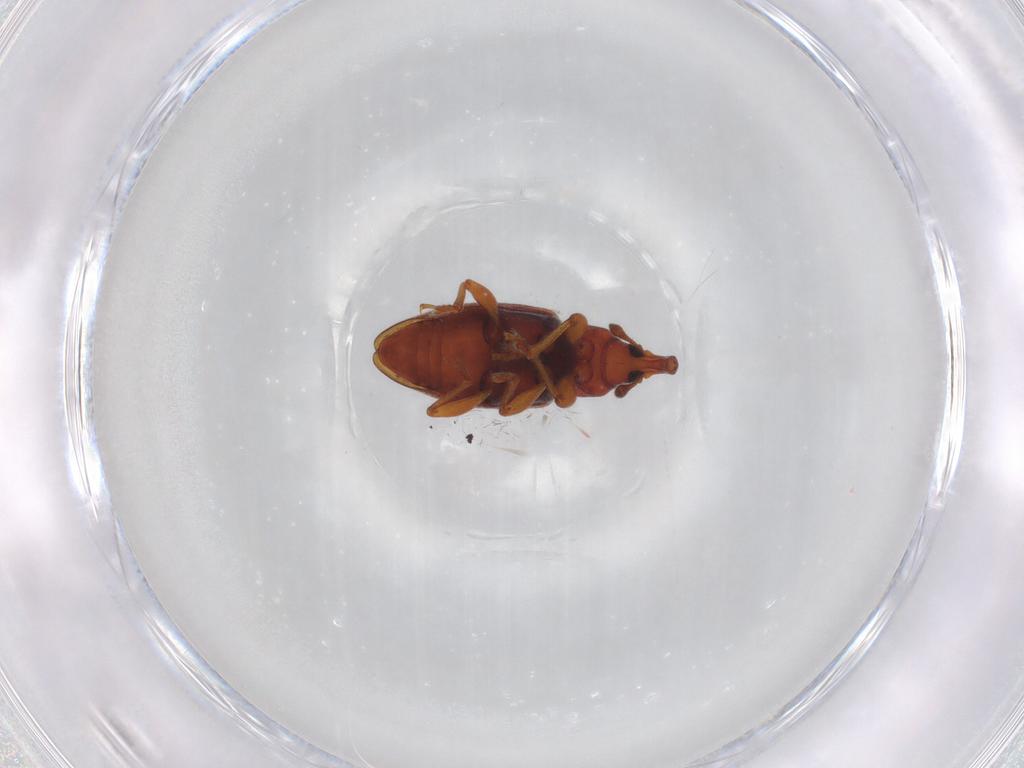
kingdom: Animalia
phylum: Arthropoda
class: Insecta
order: Coleoptera
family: Curculionidae
